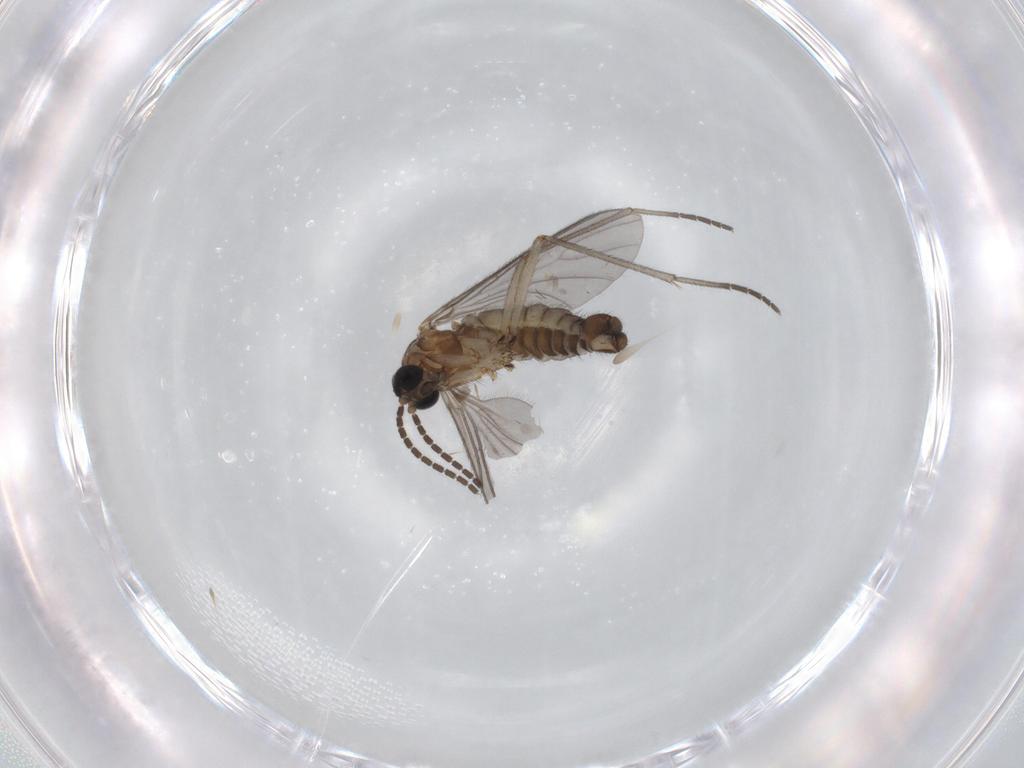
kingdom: Animalia
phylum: Arthropoda
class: Insecta
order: Diptera
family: Sciaridae
